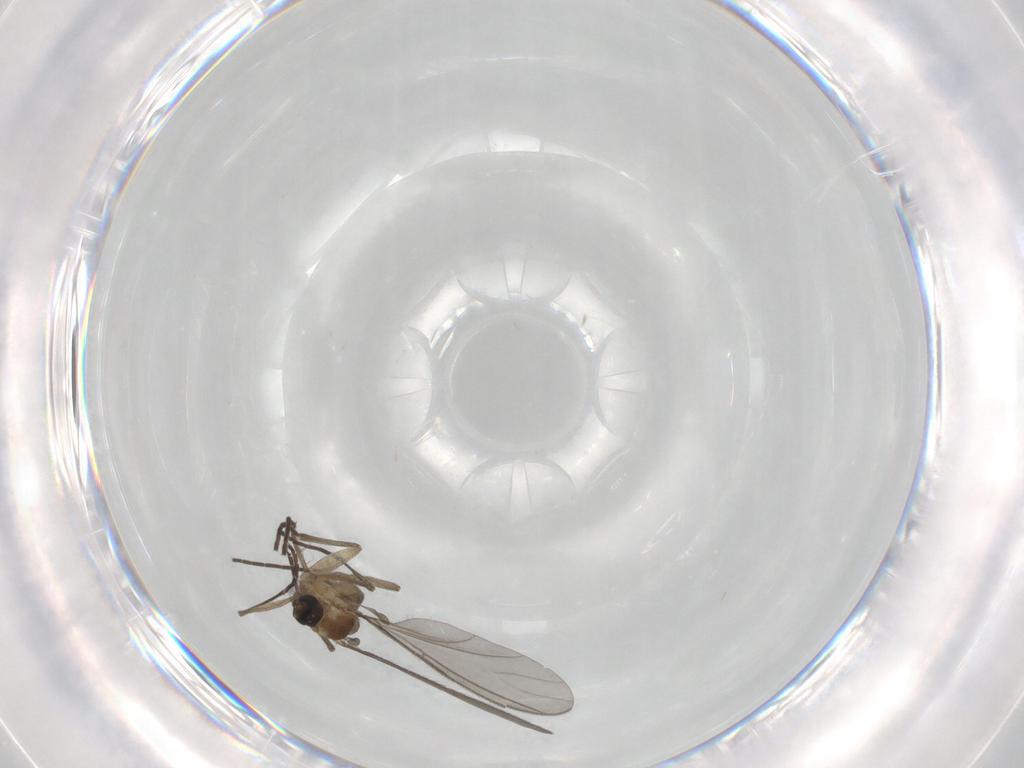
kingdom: Animalia
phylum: Arthropoda
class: Insecta
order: Diptera
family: Sciaridae
